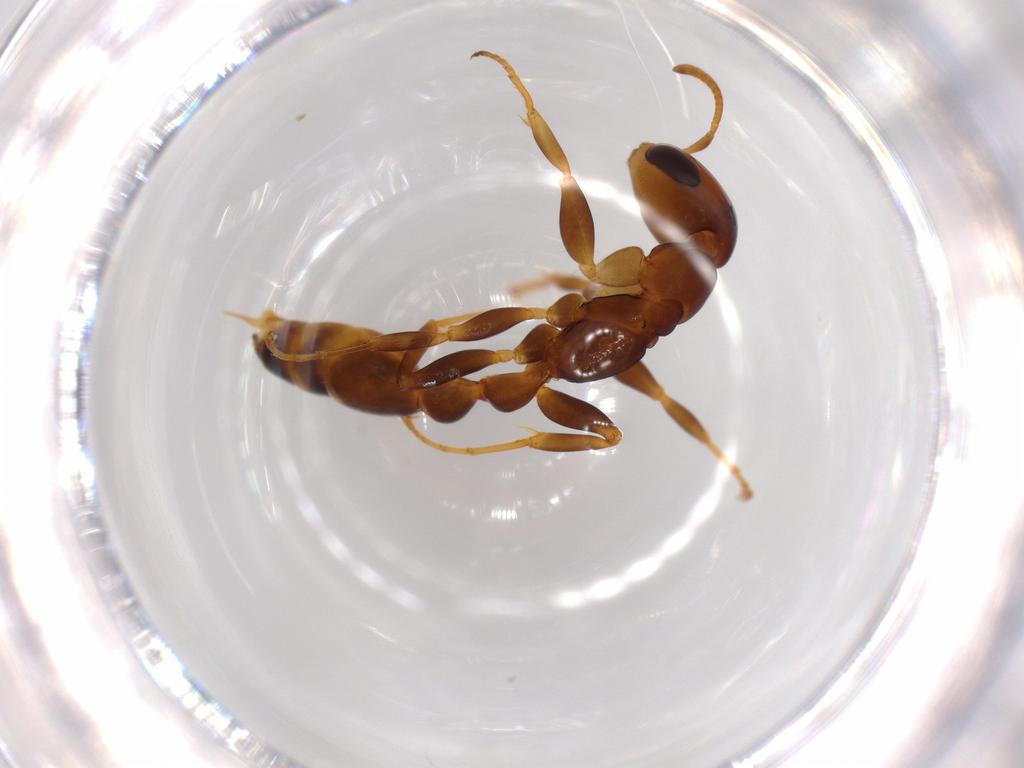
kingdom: Animalia
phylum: Arthropoda
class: Insecta
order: Hymenoptera
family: Formicidae
